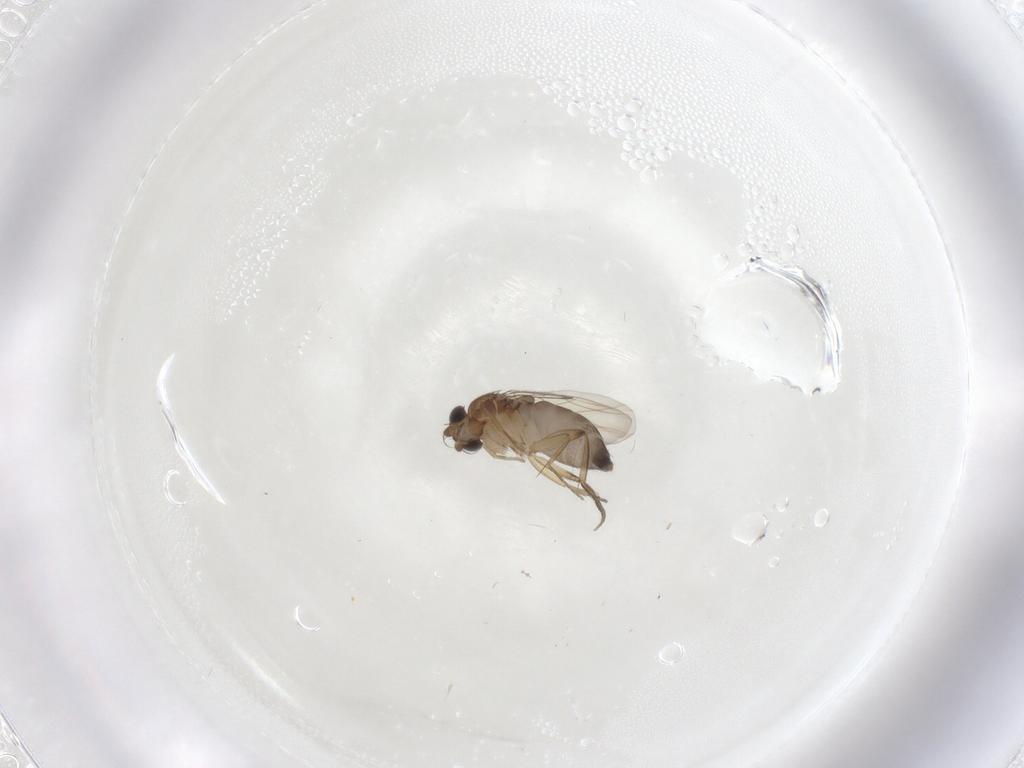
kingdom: Animalia
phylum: Arthropoda
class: Insecta
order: Diptera
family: Cecidomyiidae
